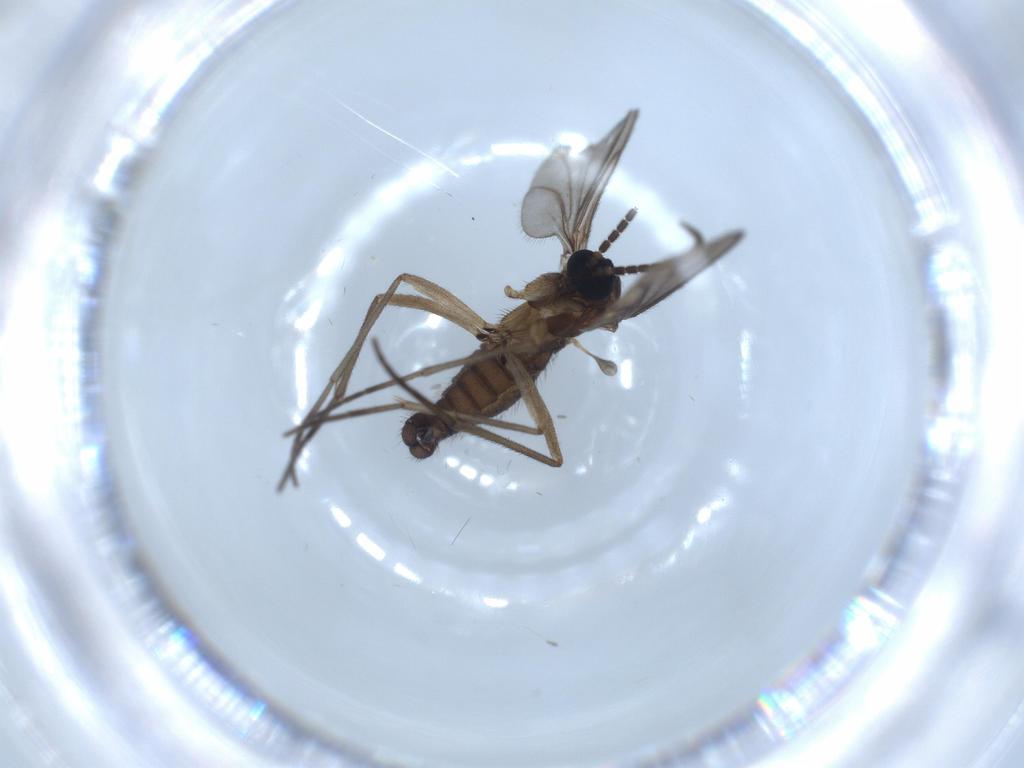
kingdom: Animalia
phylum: Arthropoda
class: Insecta
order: Diptera
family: Sciaridae
